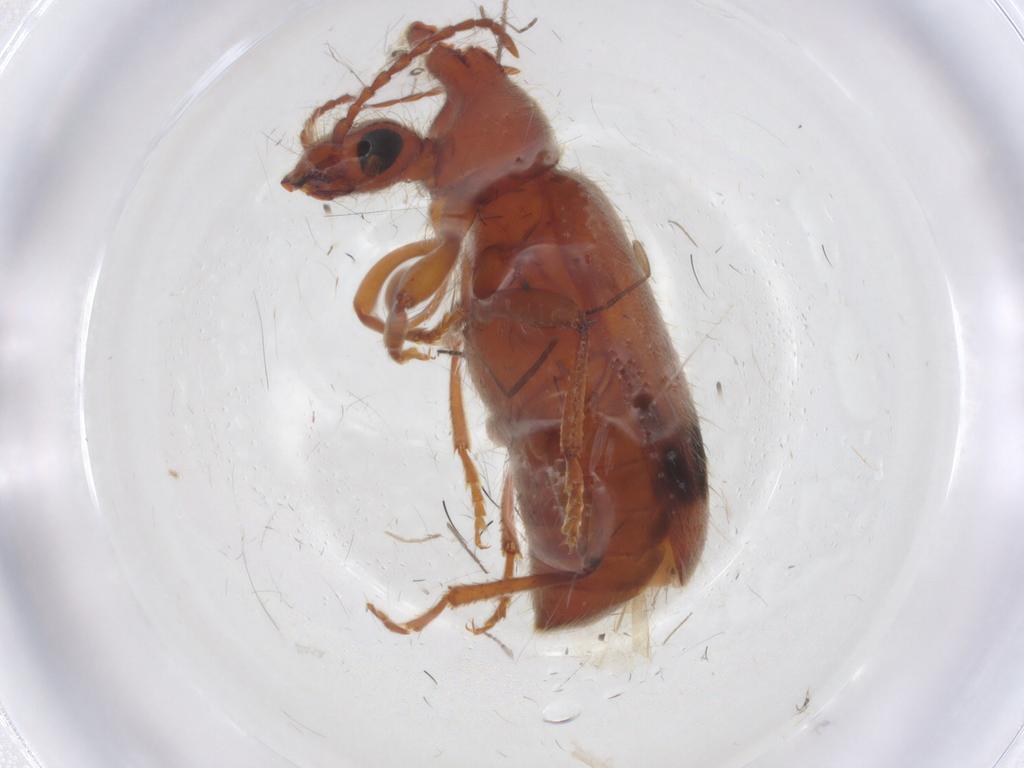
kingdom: Animalia
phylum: Arthropoda
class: Insecta
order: Coleoptera
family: Anthicidae
